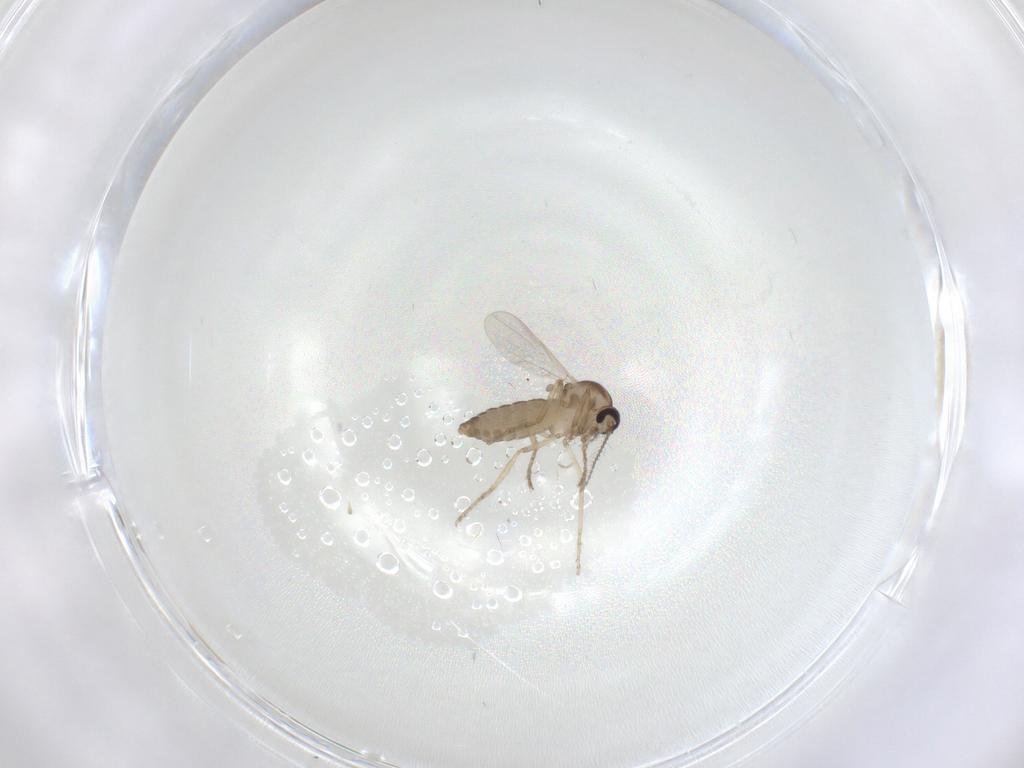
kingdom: Animalia
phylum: Arthropoda
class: Insecta
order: Diptera
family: Ceratopogonidae
